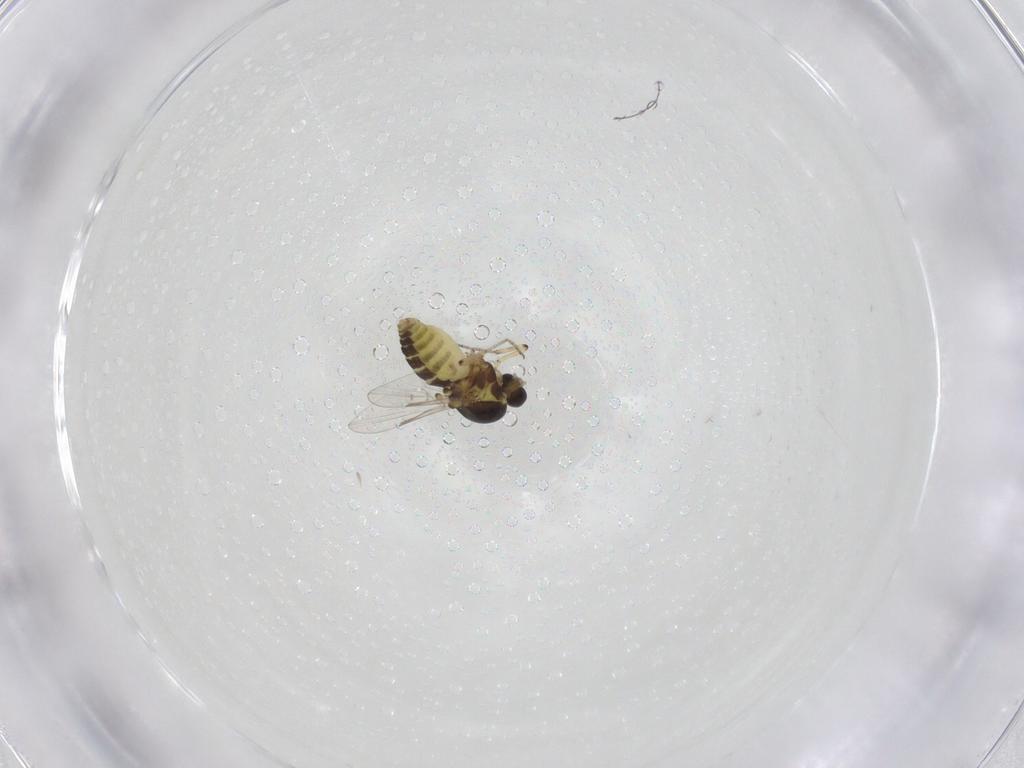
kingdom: Animalia
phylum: Arthropoda
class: Insecta
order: Diptera
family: Ceratopogonidae
